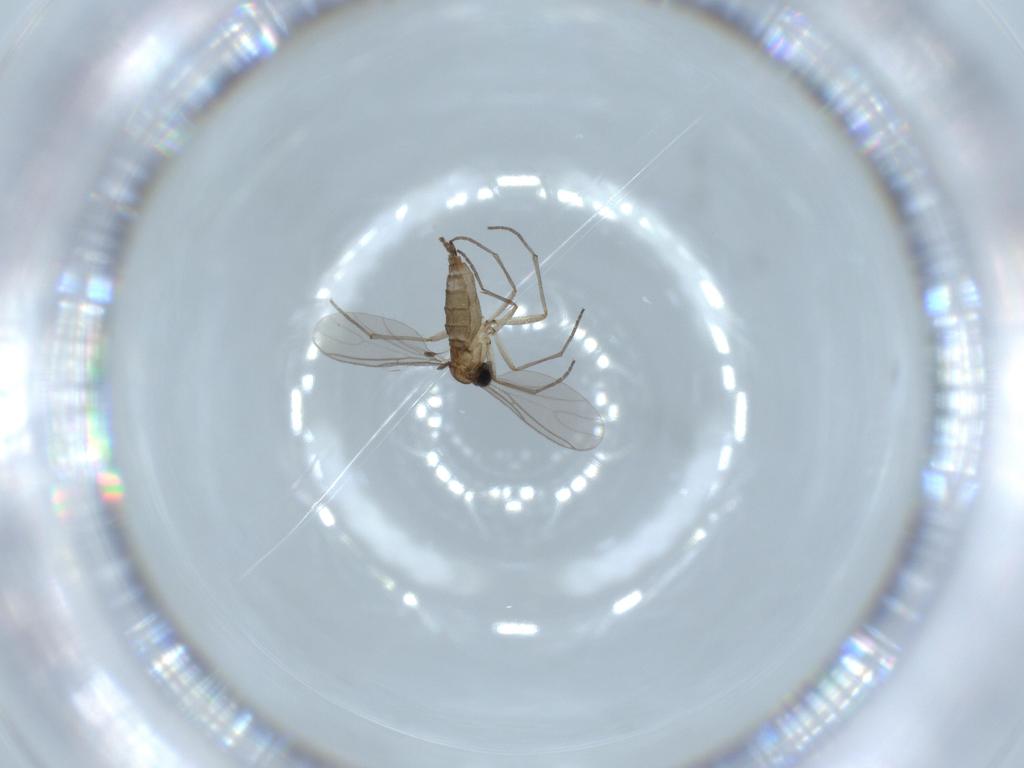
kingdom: Animalia
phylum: Arthropoda
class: Insecta
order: Diptera
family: Sciaridae
